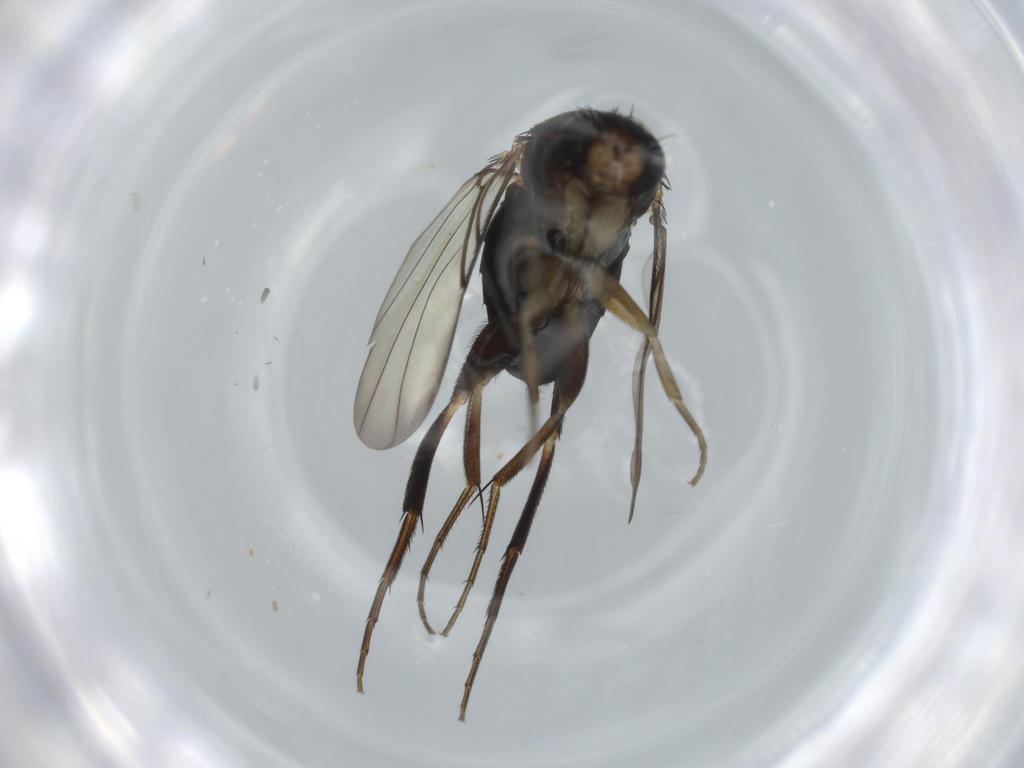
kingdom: Animalia
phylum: Arthropoda
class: Insecta
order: Diptera
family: Phoridae
